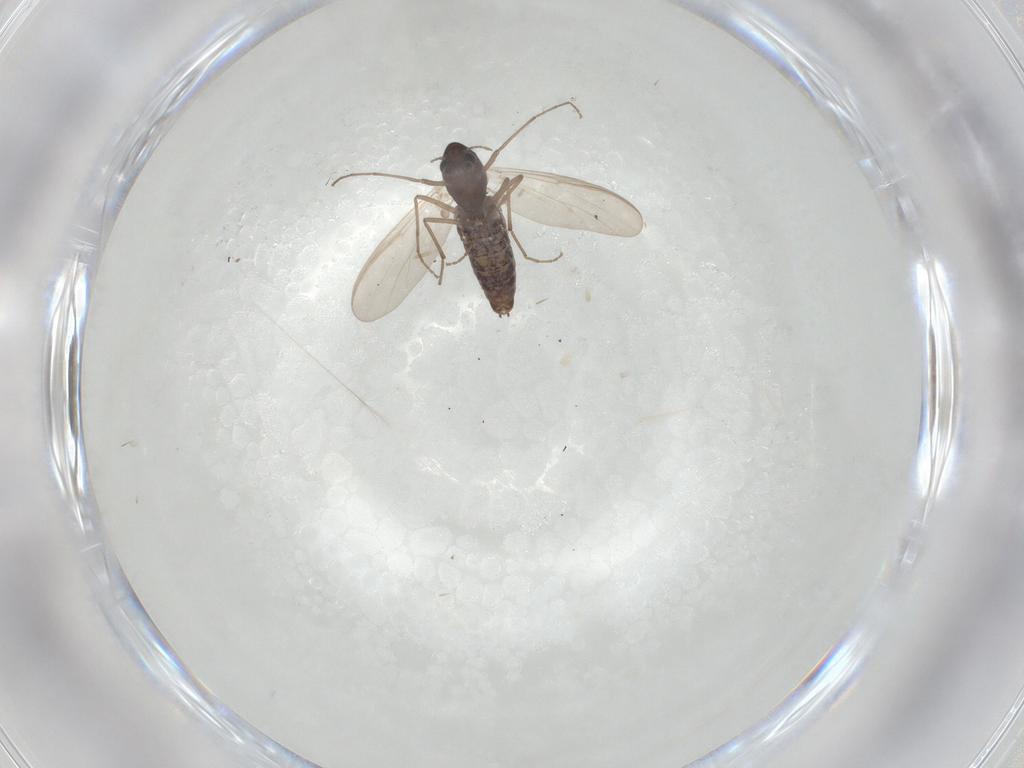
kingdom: Animalia
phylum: Arthropoda
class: Insecta
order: Diptera
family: Chironomidae
